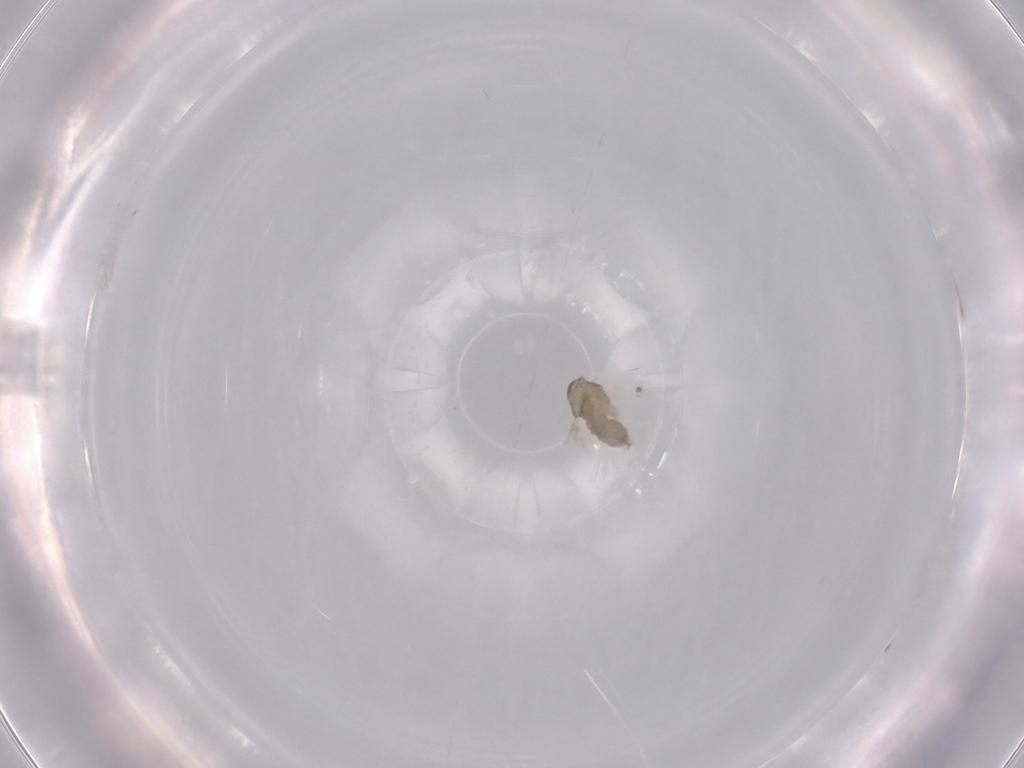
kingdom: Animalia
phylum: Arthropoda
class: Insecta
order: Diptera
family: Cecidomyiidae
